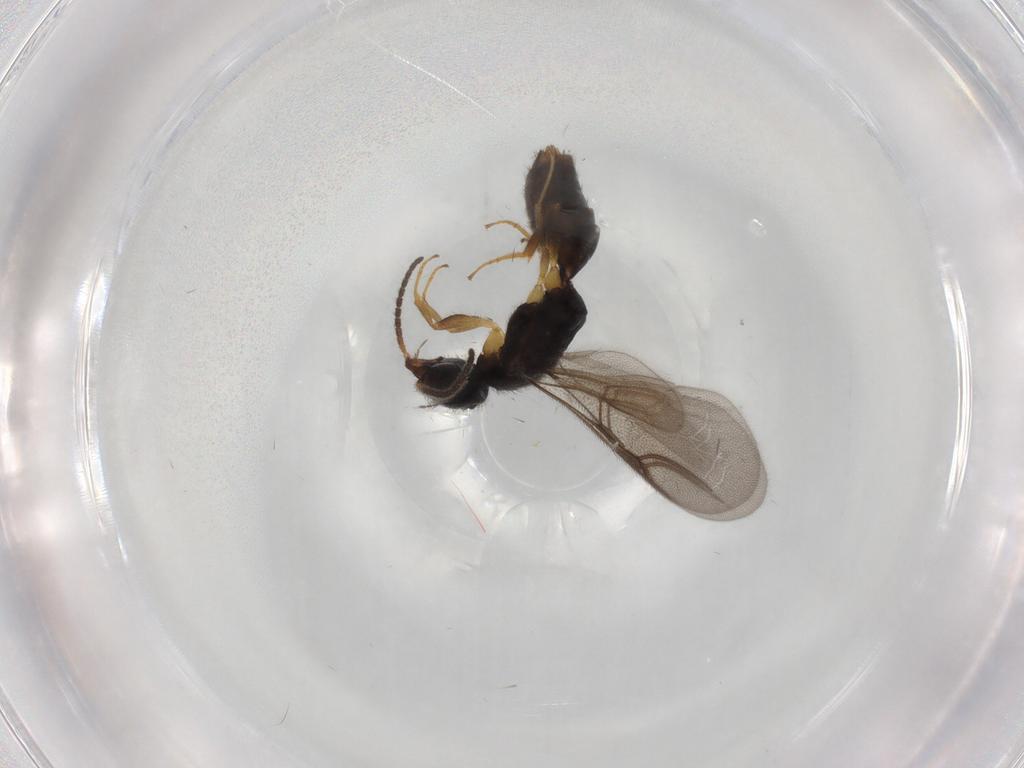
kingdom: Animalia
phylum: Arthropoda
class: Insecta
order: Hymenoptera
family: Bethylidae
